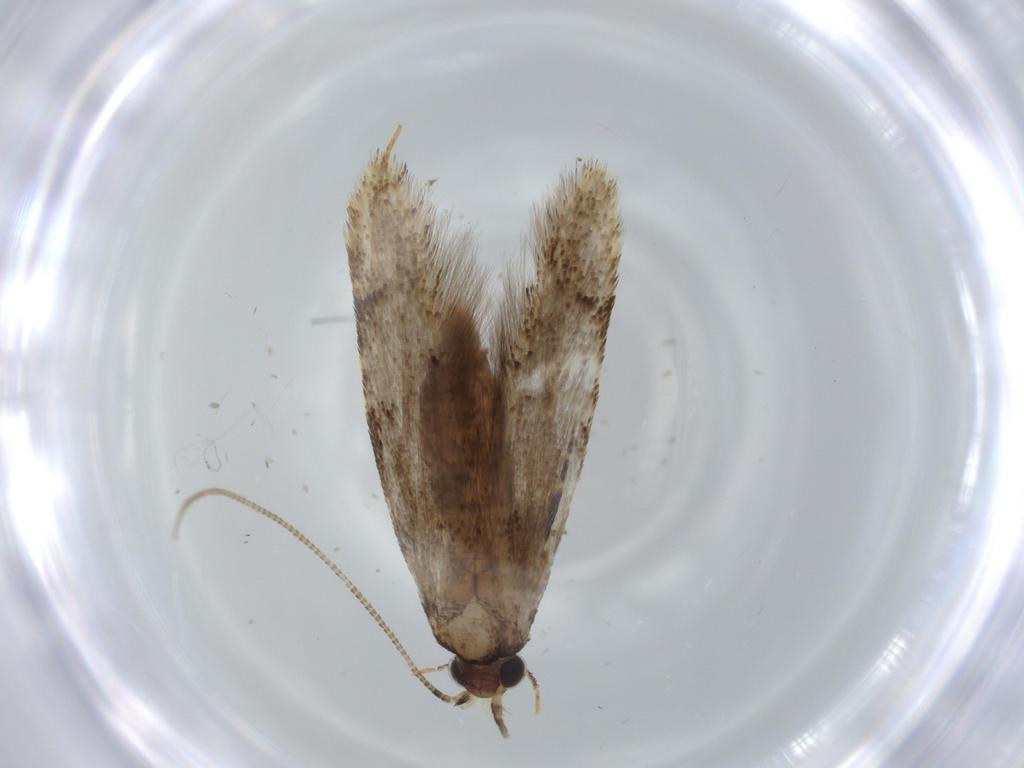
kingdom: Animalia
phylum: Arthropoda
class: Insecta
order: Lepidoptera
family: Tineidae
